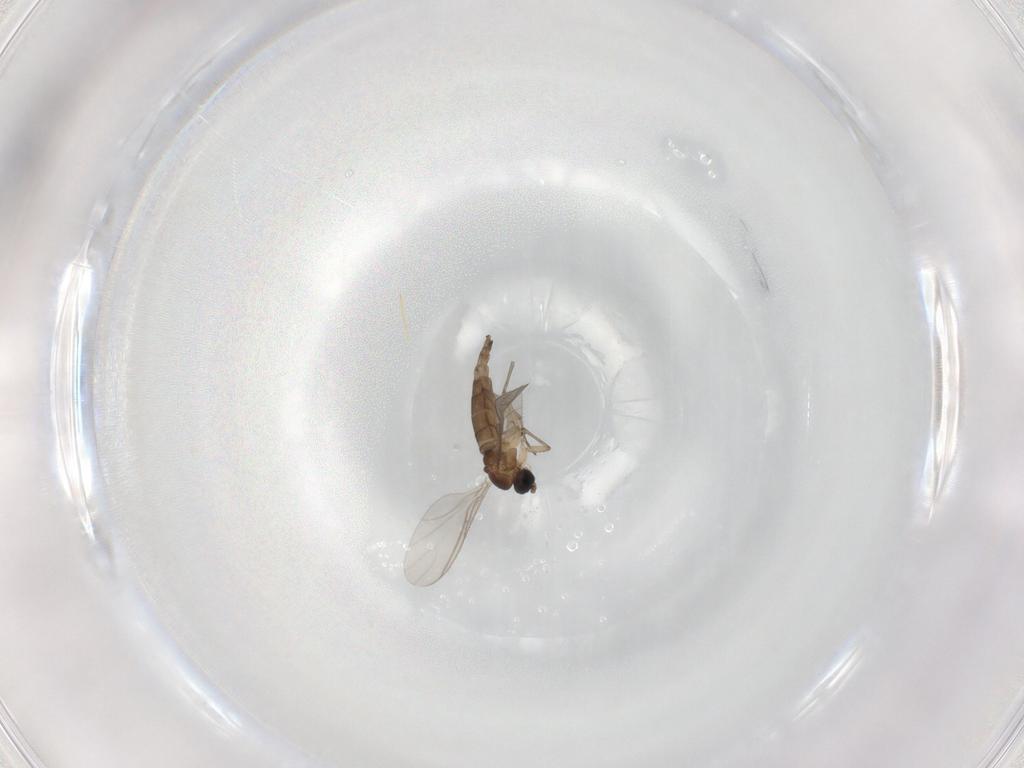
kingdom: Animalia
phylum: Arthropoda
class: Insecta
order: Diptera
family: Sciaridae
